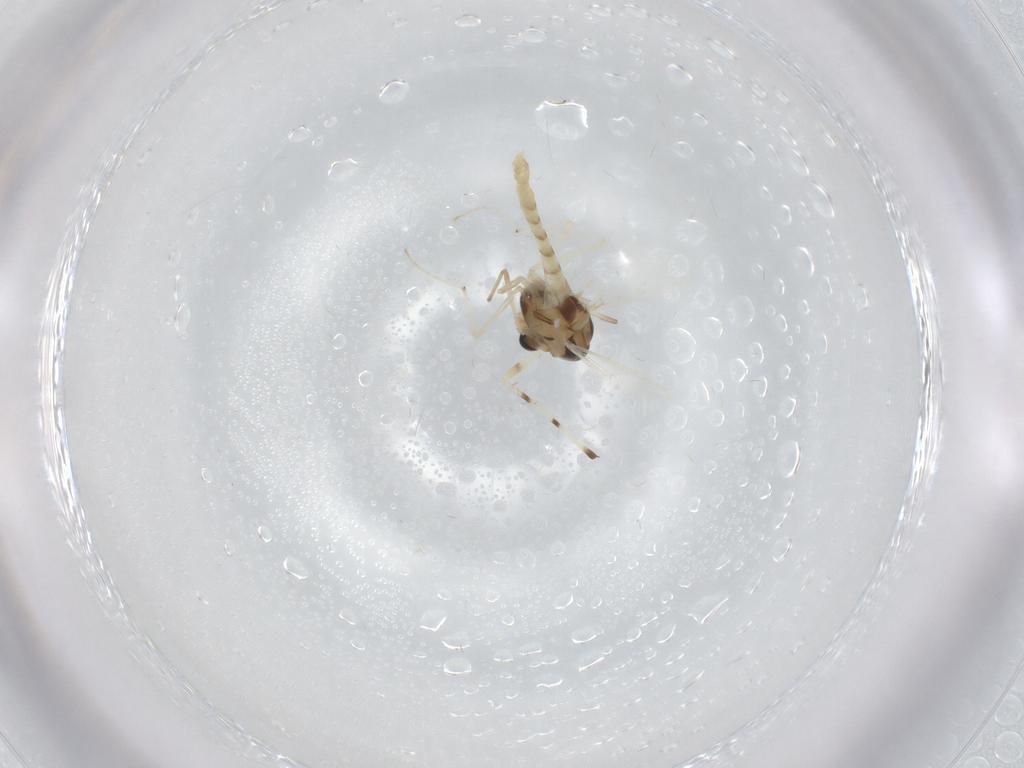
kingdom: Animalia
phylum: Arthropoda
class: Insecta
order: Diptera
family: Chironomidae
